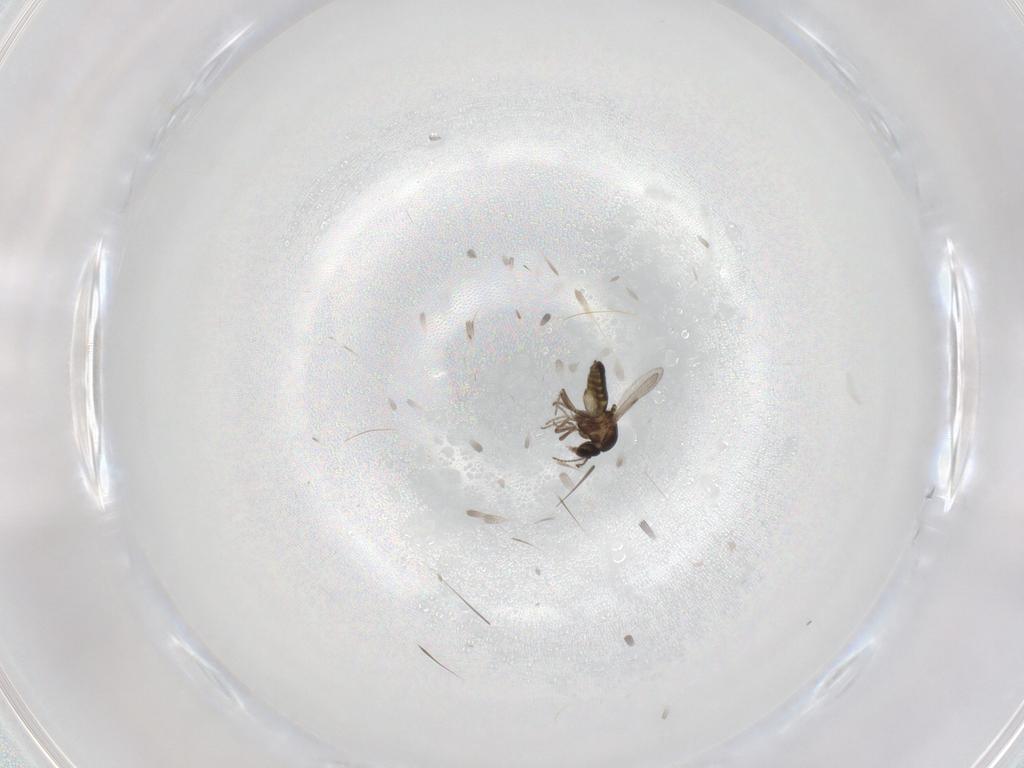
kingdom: Animalia
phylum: Arthropoda
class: Insecta
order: Diptera
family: Ceratopogonidae
